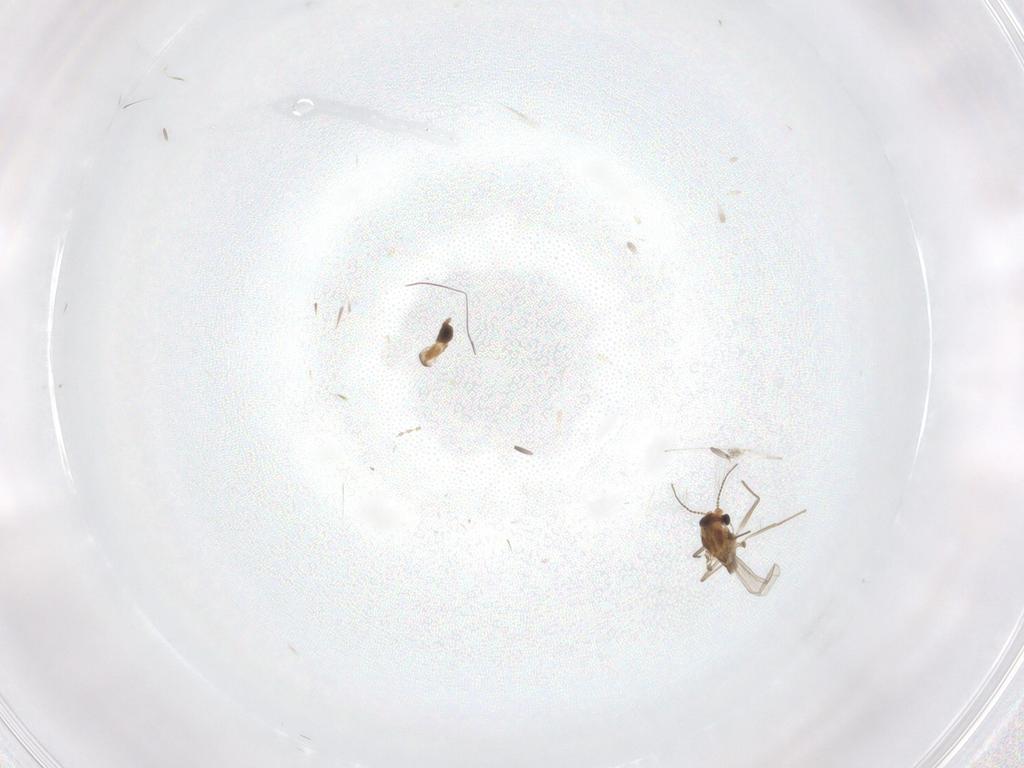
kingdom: Animalia
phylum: Arthropoda
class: Insecta
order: Diptera
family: Chironomidae
